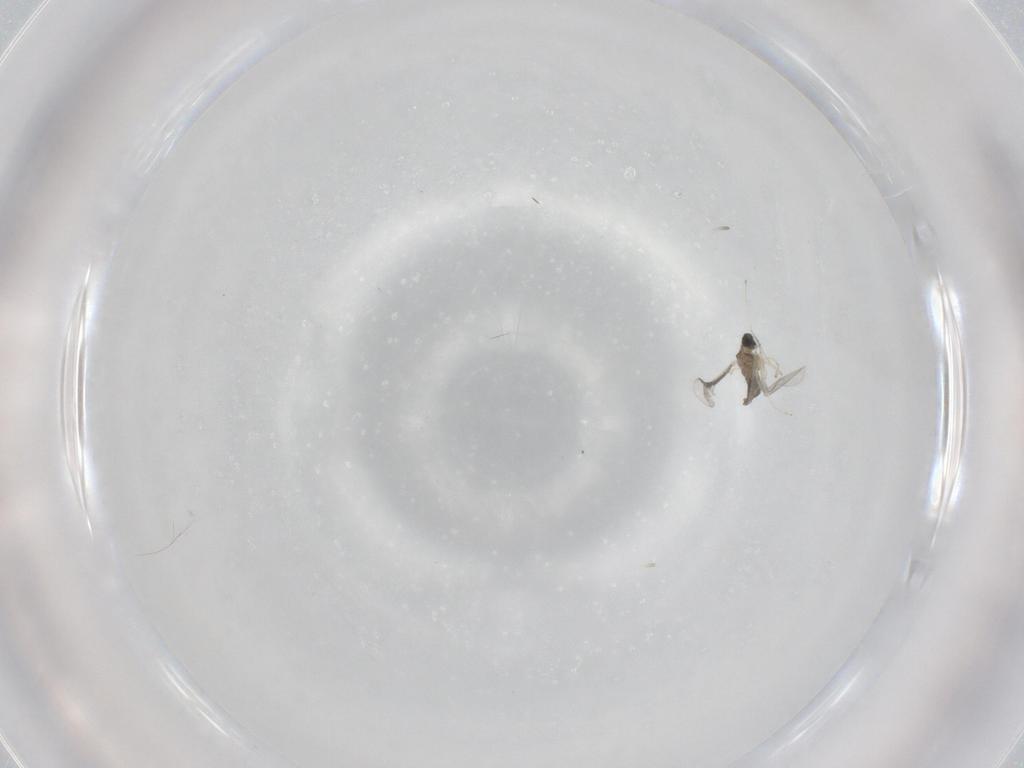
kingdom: Animalia
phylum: Arthropoda
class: Insecta
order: Diptera
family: Cecidomyiidae
